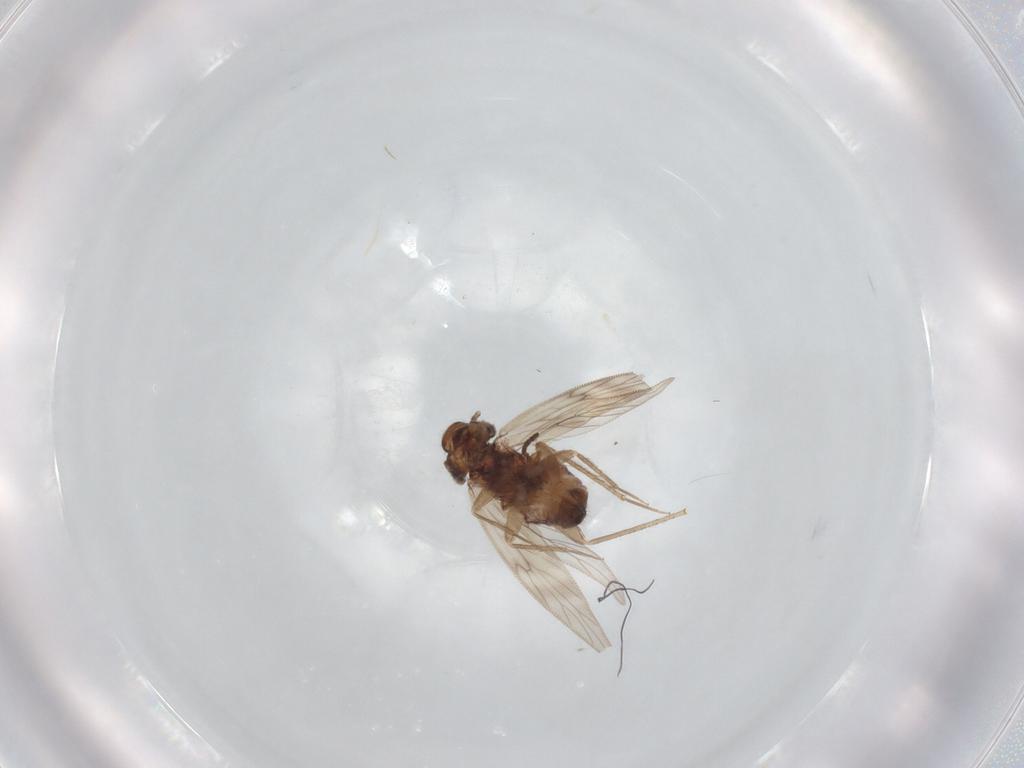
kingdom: Animalia
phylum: Arthropoda
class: Insecta
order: Psocodea
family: Lepidopsocidae
